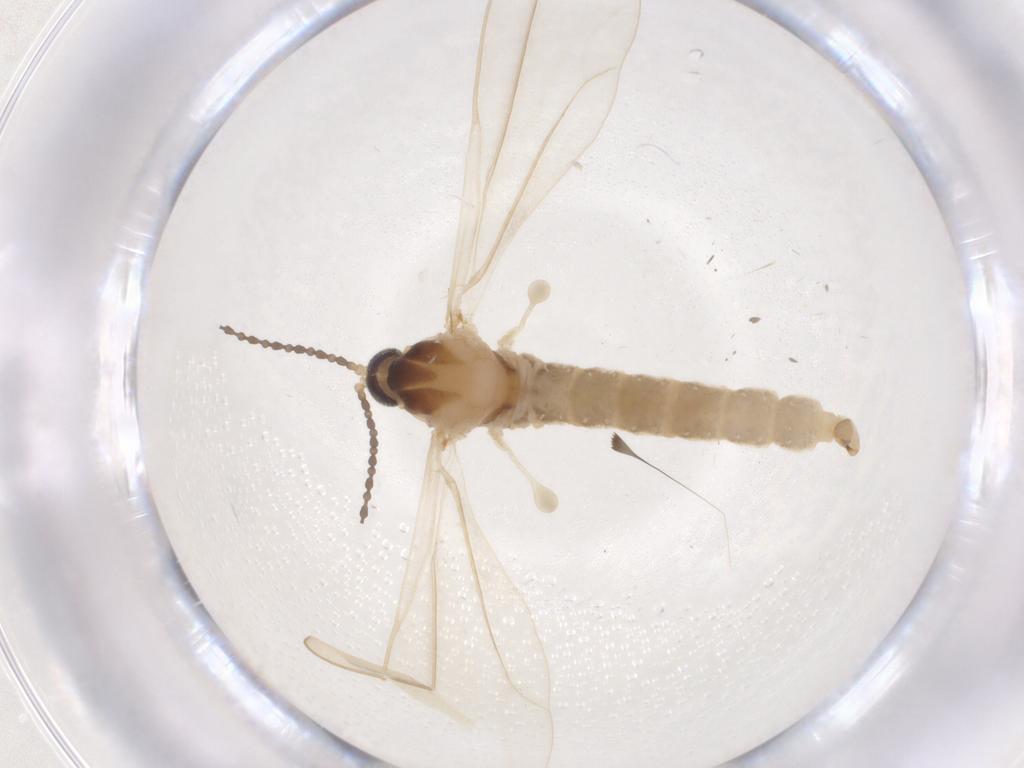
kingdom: Animalia
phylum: Arthropoda
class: Insecta
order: Diptera
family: Cecidomyiidae
